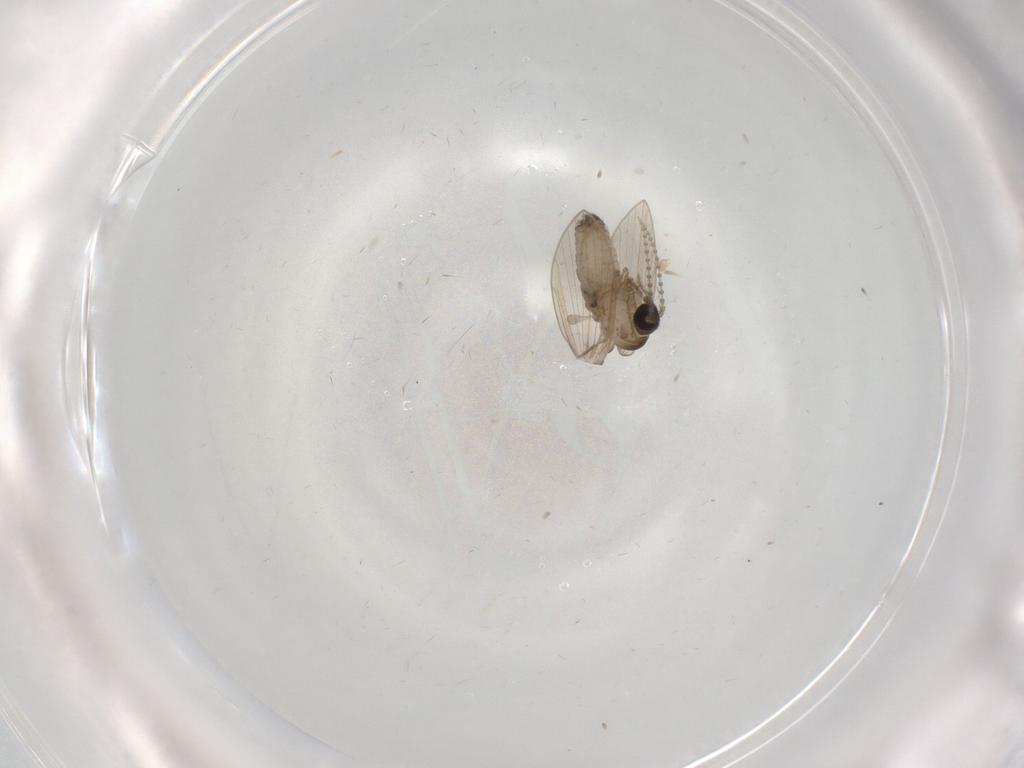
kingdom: Animalia
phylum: Arthropoda
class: Insecta
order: Diptera
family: Psychodidae
